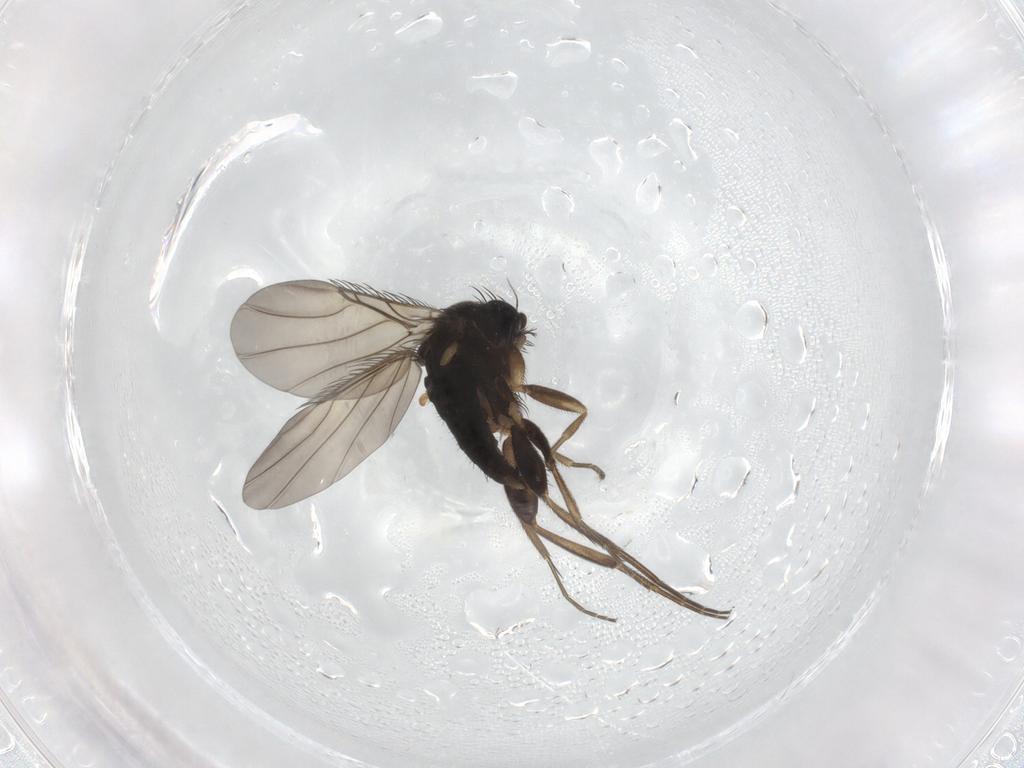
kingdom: Animalia
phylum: Arthropoda
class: Insecta
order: Diptera
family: Phoridae
